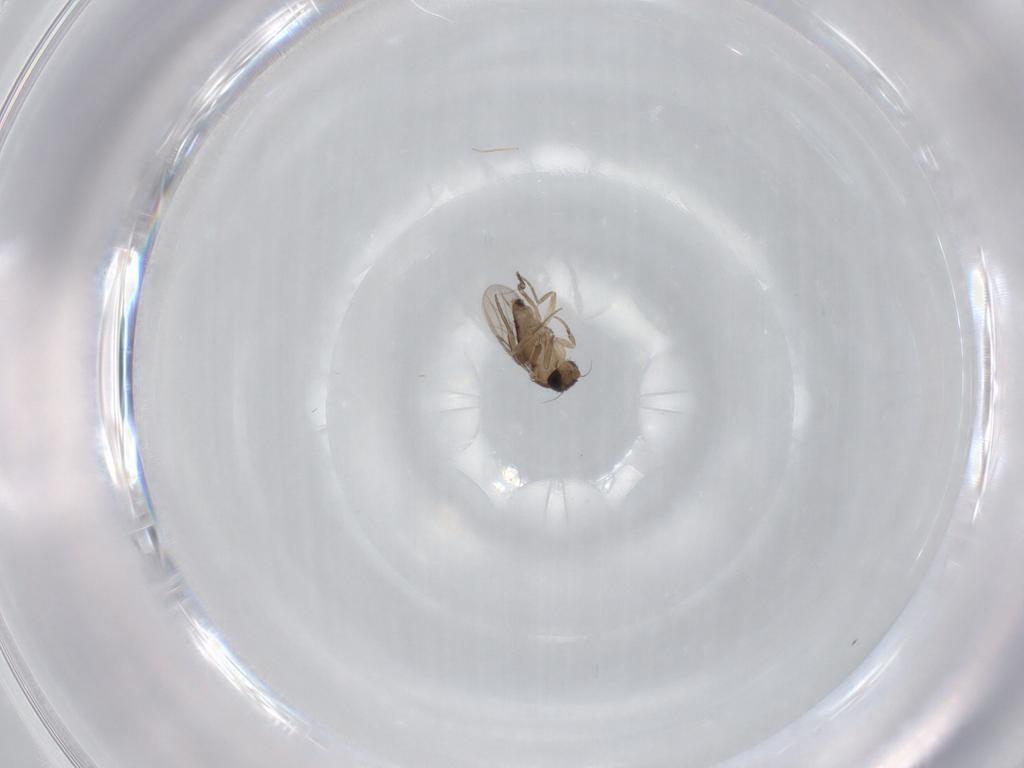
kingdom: Animalia
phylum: Arthropoda
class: Insecta
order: Diptera
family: Phoridae
